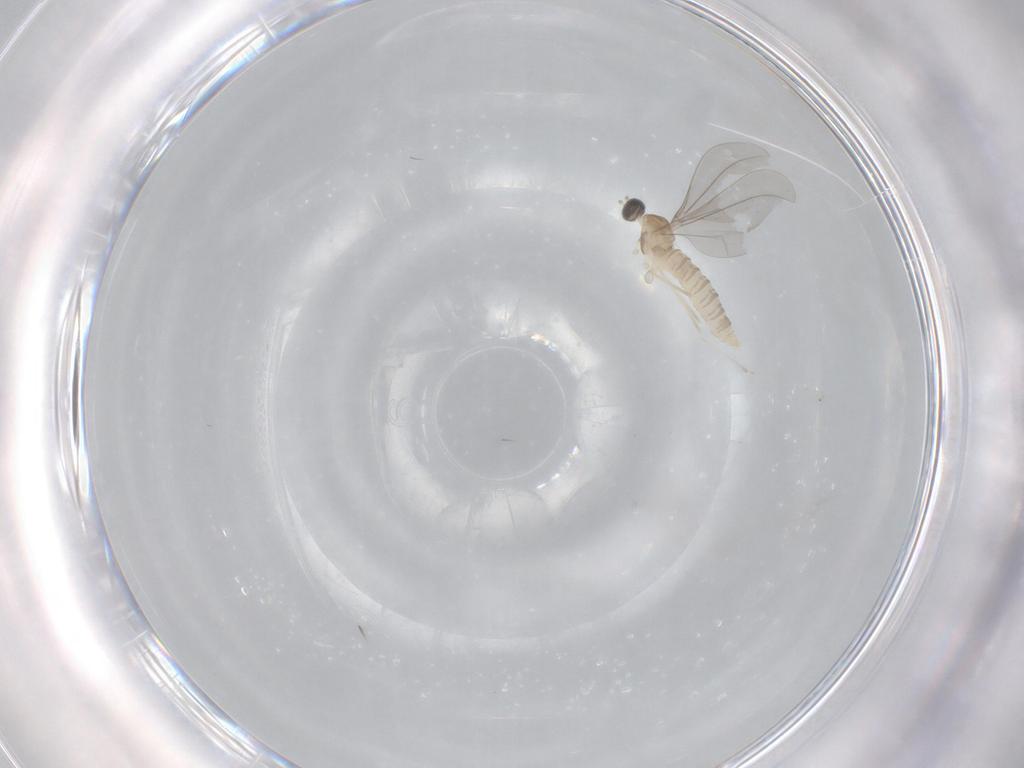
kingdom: Animalia
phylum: Arthropoda
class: Insecta
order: Diptera
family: Cecidomyiidae
